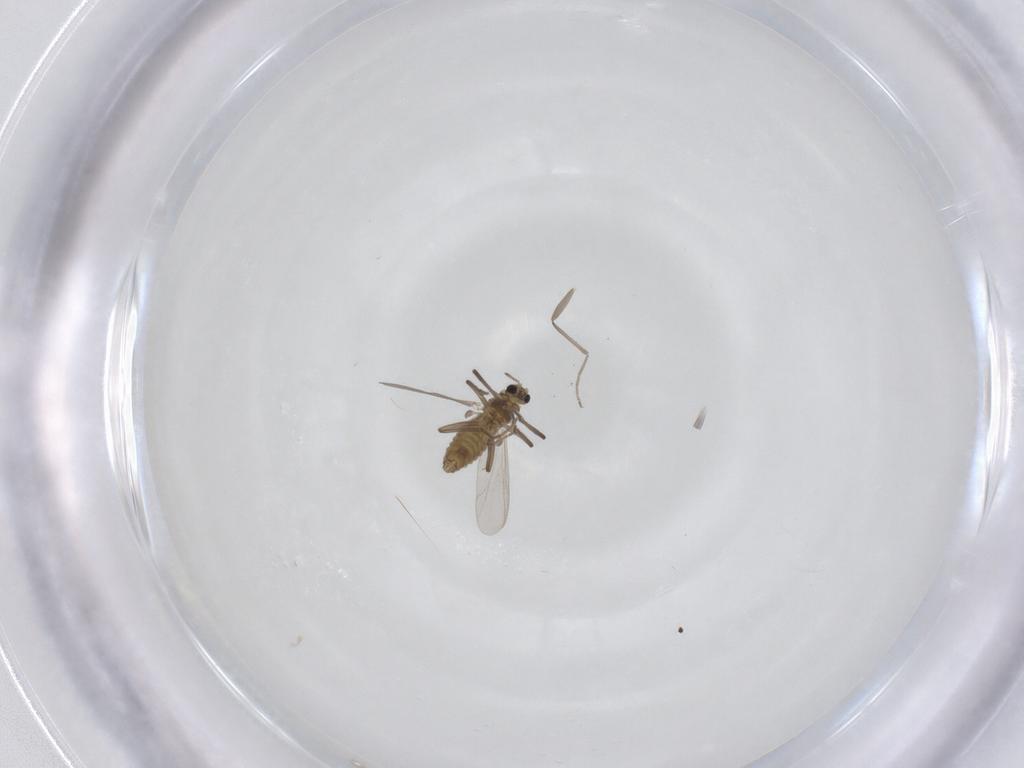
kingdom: Animalia
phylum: Arthropoda
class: Insecta
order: Diptera
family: Chironomidae
